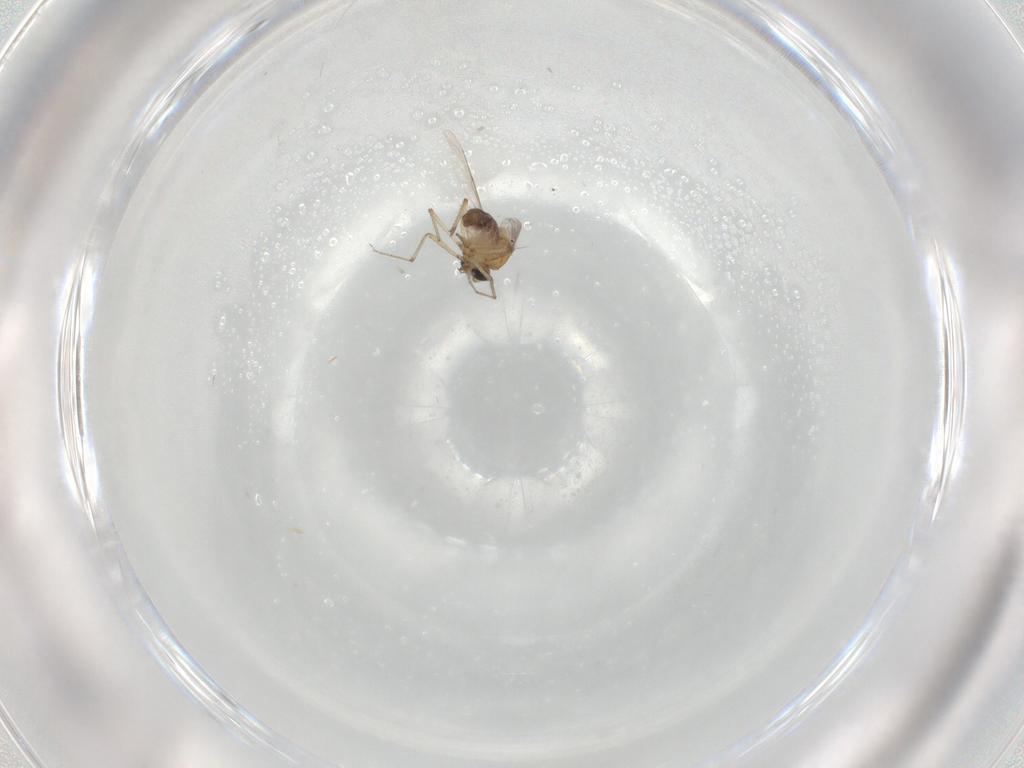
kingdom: Animalia
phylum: Arthropoda
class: Insecta
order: Diptera
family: Ceratopogonidae
